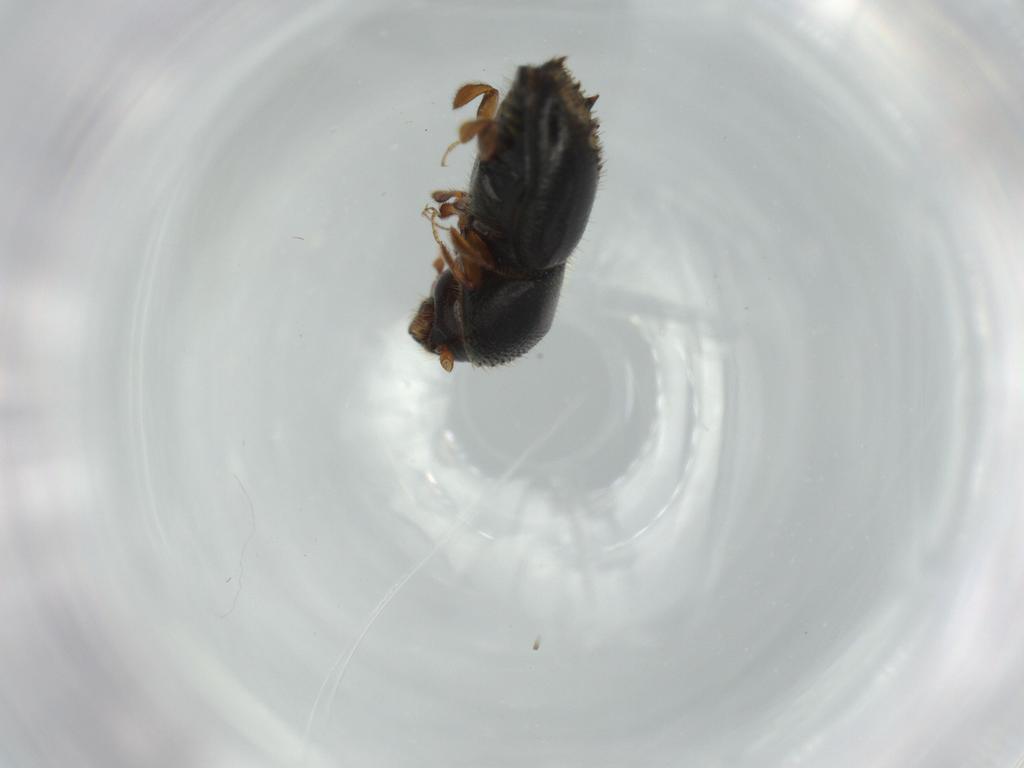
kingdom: Animalia
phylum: Arthropoda
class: Insecta
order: Coleoptera
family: Curculionidae
